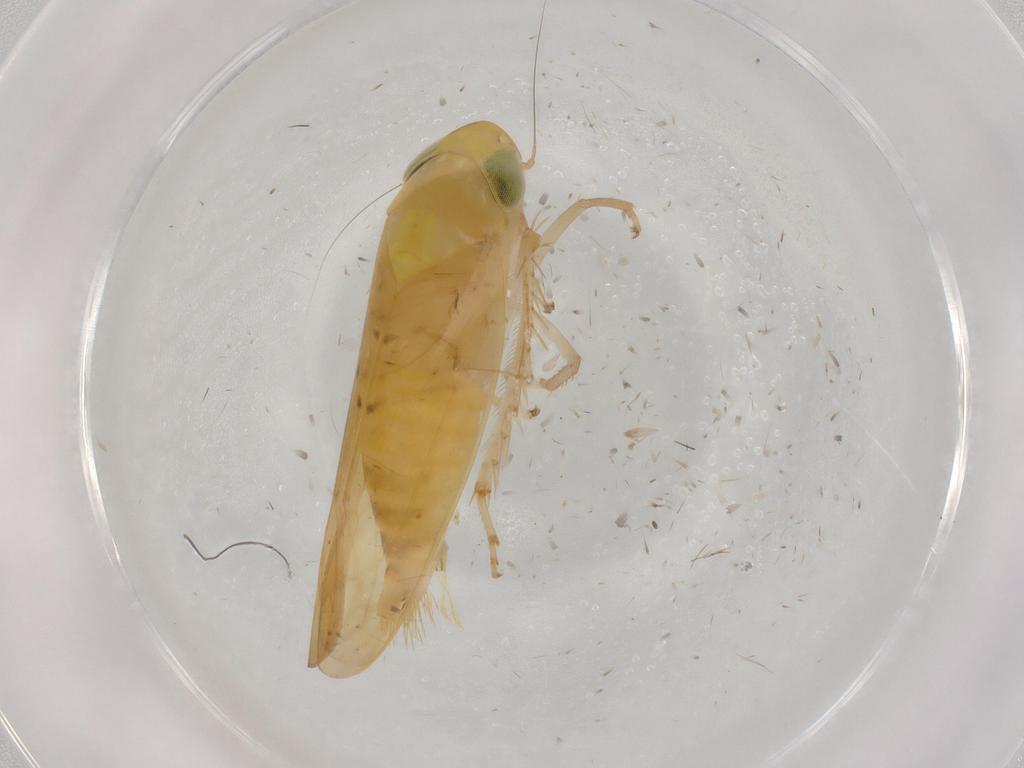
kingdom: Animalia
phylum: Arthropoda
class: Insecta
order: Hemiptera
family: Cicadellidae
